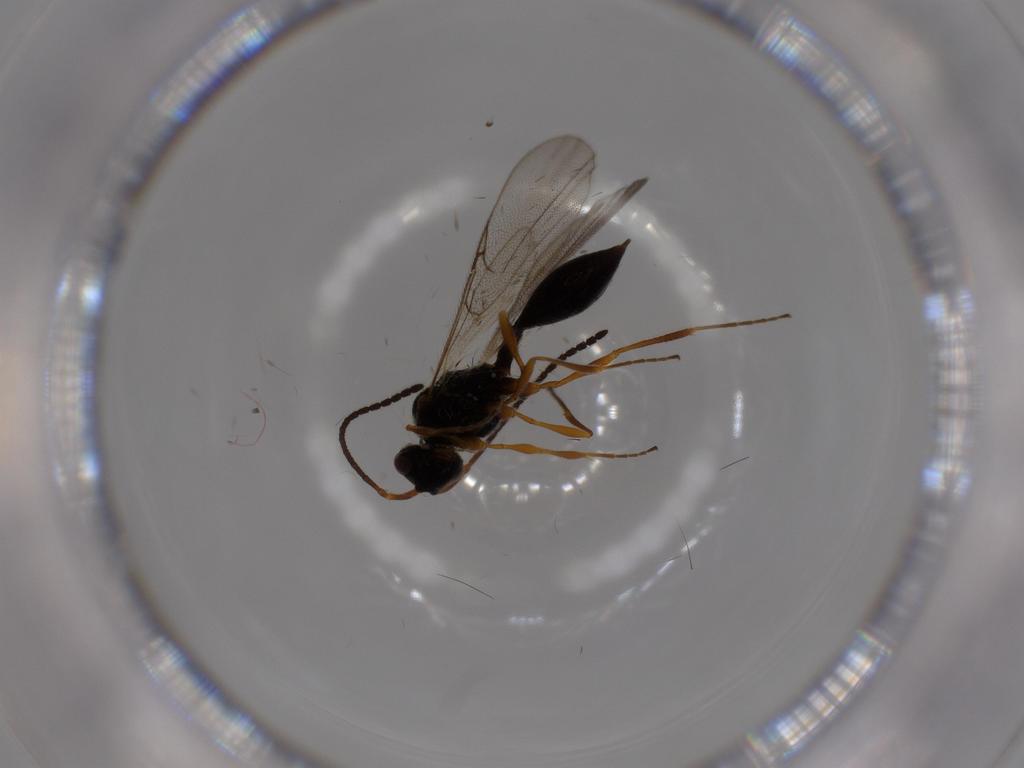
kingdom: Animalia
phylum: Arthropoda
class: Insecta
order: Hymenoptera
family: Diapriidae
